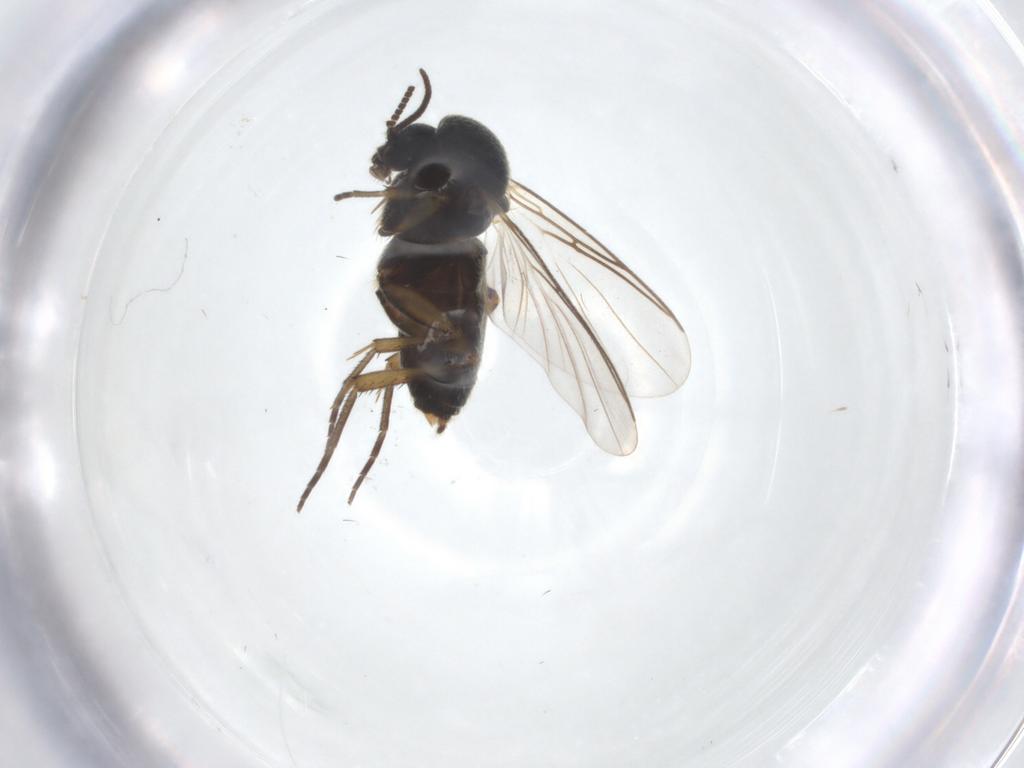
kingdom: Animalia
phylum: Arthropoda
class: Insecta
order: Diptera
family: Mycetophilidae
